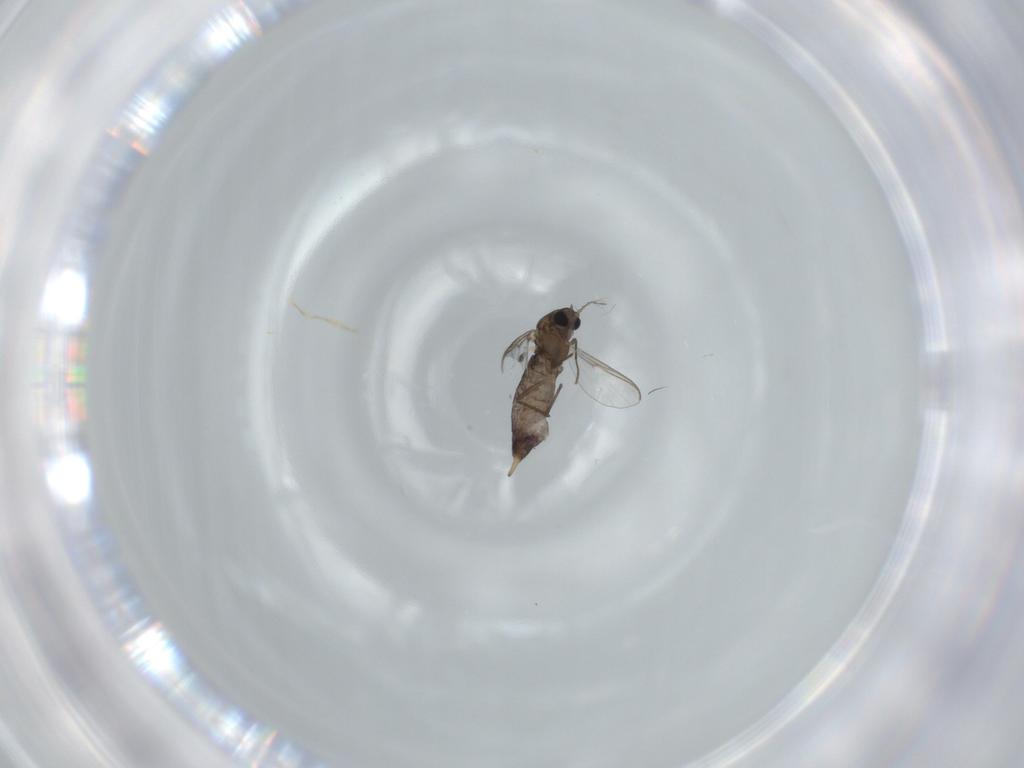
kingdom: Animalia
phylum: Arthropoda
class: Insecta
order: Diptera
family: Chironomidae
